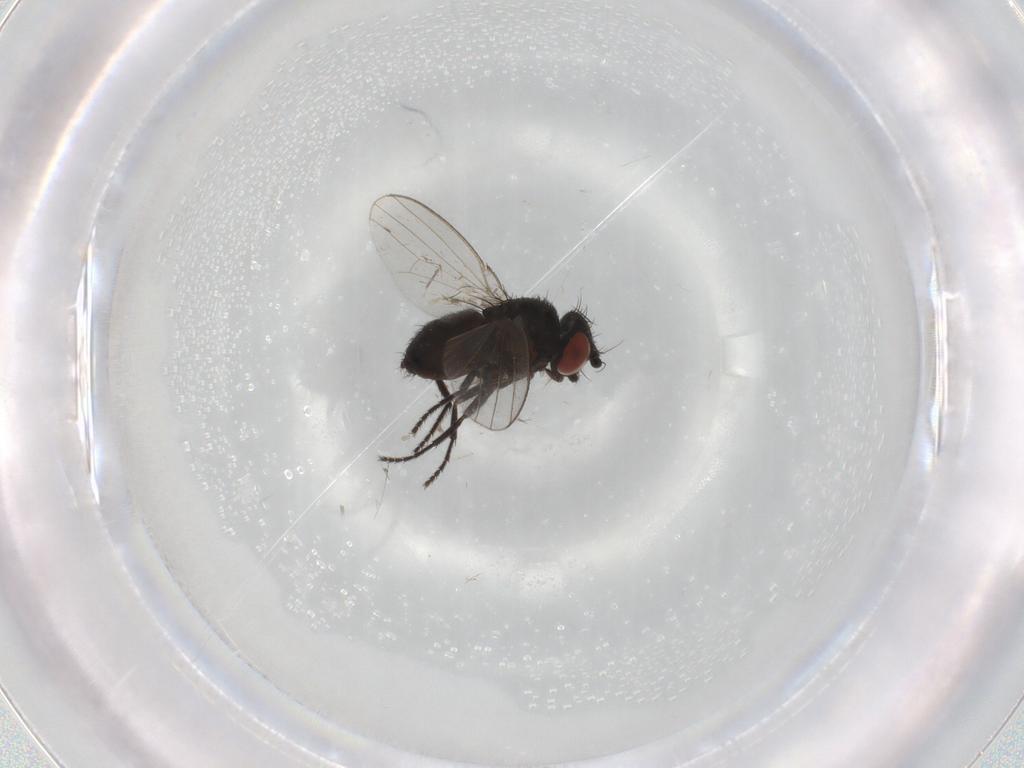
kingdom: Animalia
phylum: Arthropoda
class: Insecta
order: Diptera
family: Milichiidae
